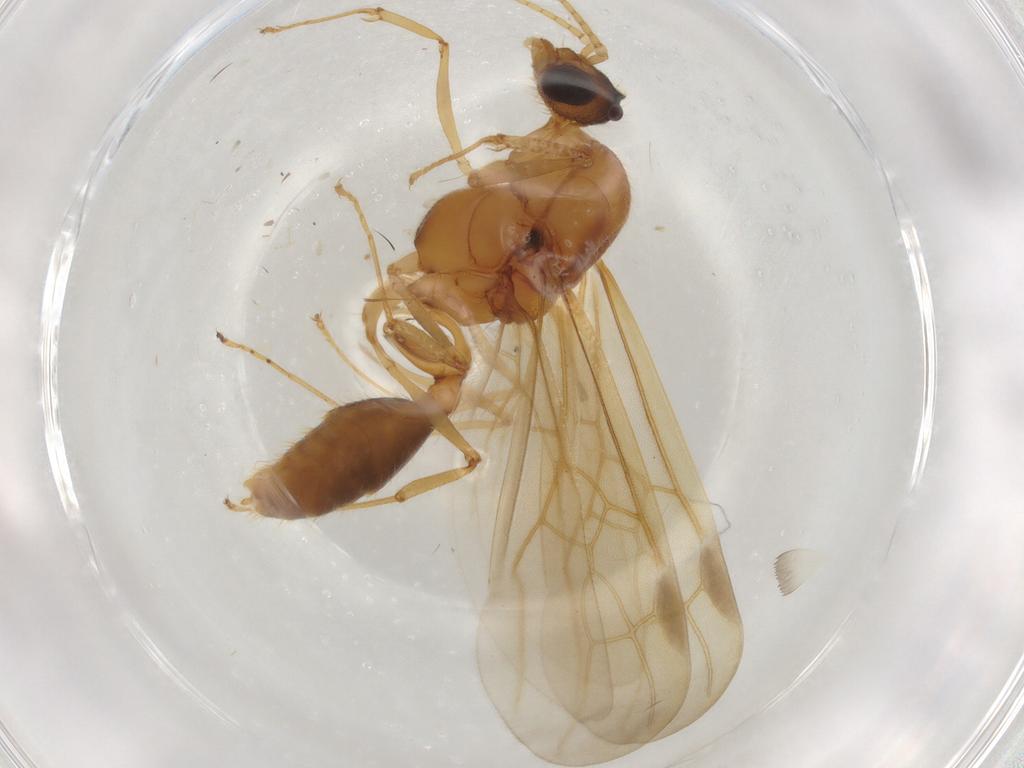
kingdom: Animalia
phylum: Arthropoda
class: Insecta
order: Hymenoptera
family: Formicidae
